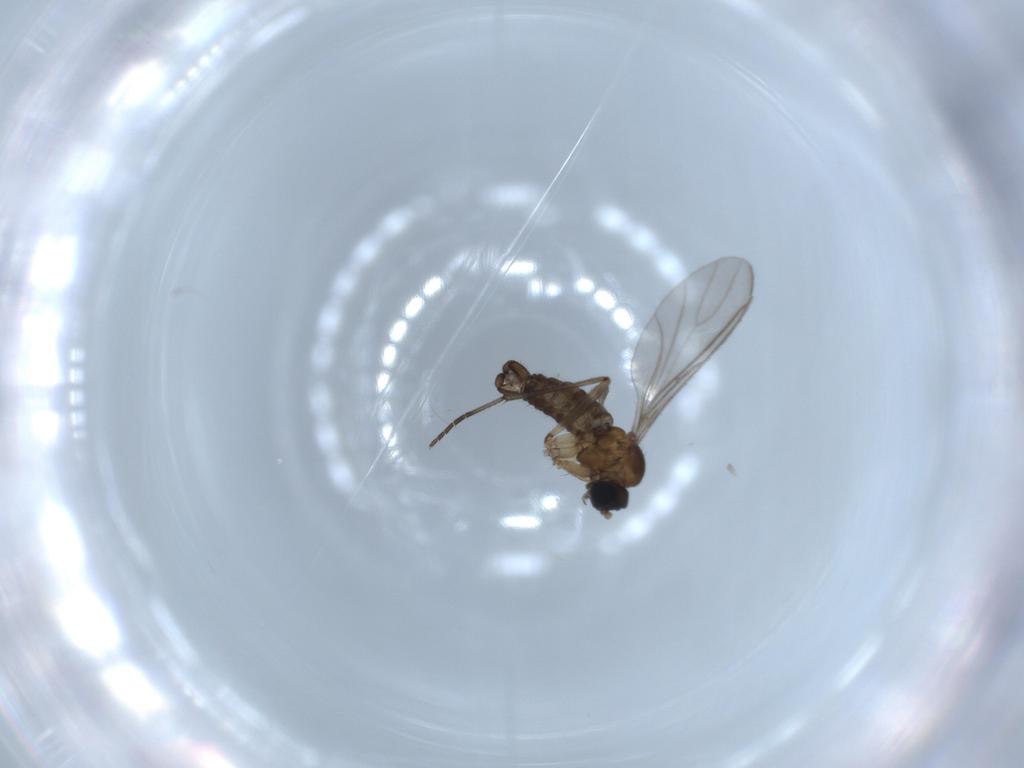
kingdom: Animalia
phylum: Arthropoda
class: Insecta
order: Diptera
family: Sciaridae
